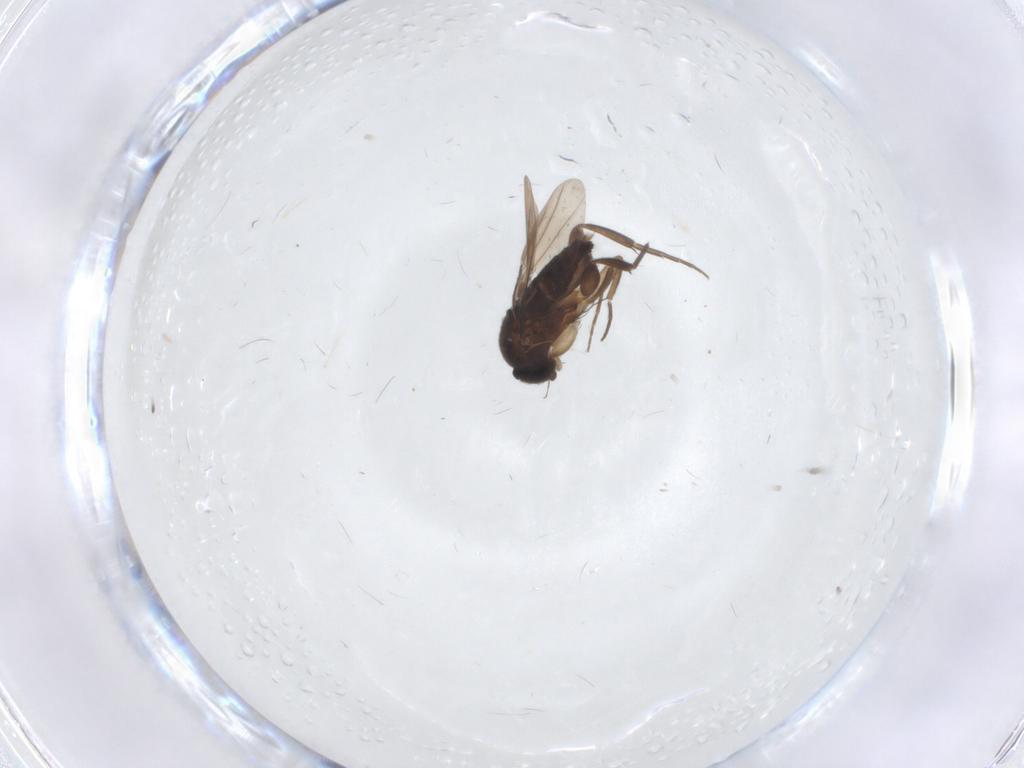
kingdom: Animalia
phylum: Arthropoda
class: Insecta
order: Diptera
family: Phoridae
